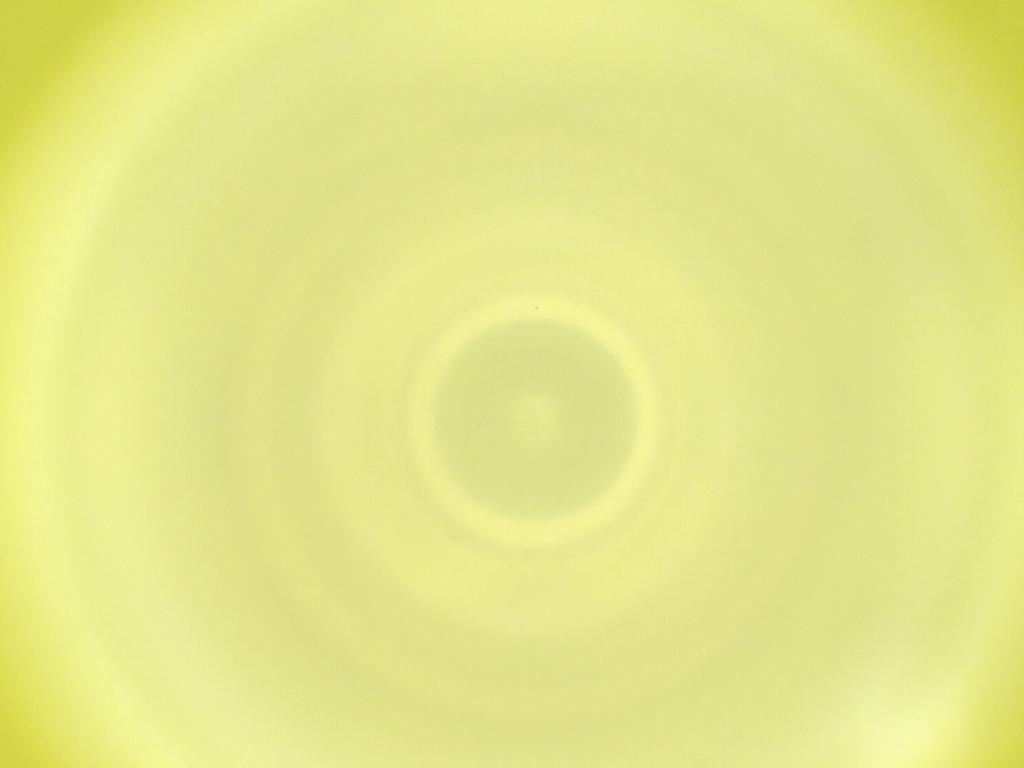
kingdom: Animalia
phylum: Arthropoda
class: Insecta
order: Diptera
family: Cecidomyiidae
